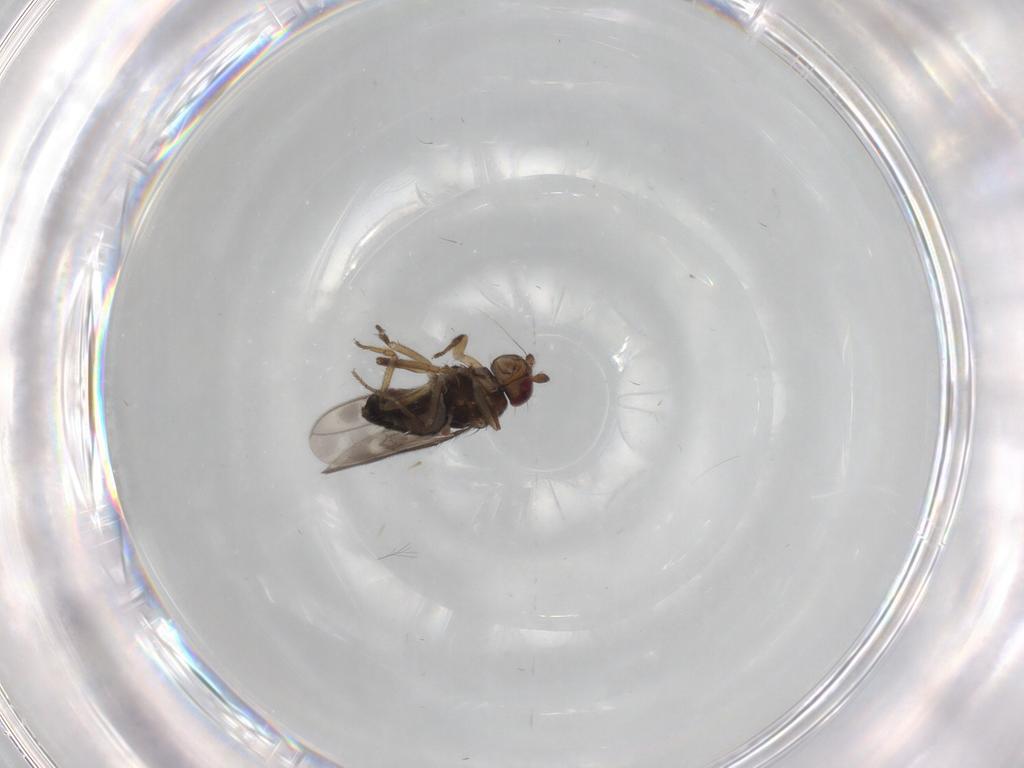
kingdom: Animalia
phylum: Arthropoda
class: Insecta
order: Diptera
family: Sphaeroceridae
